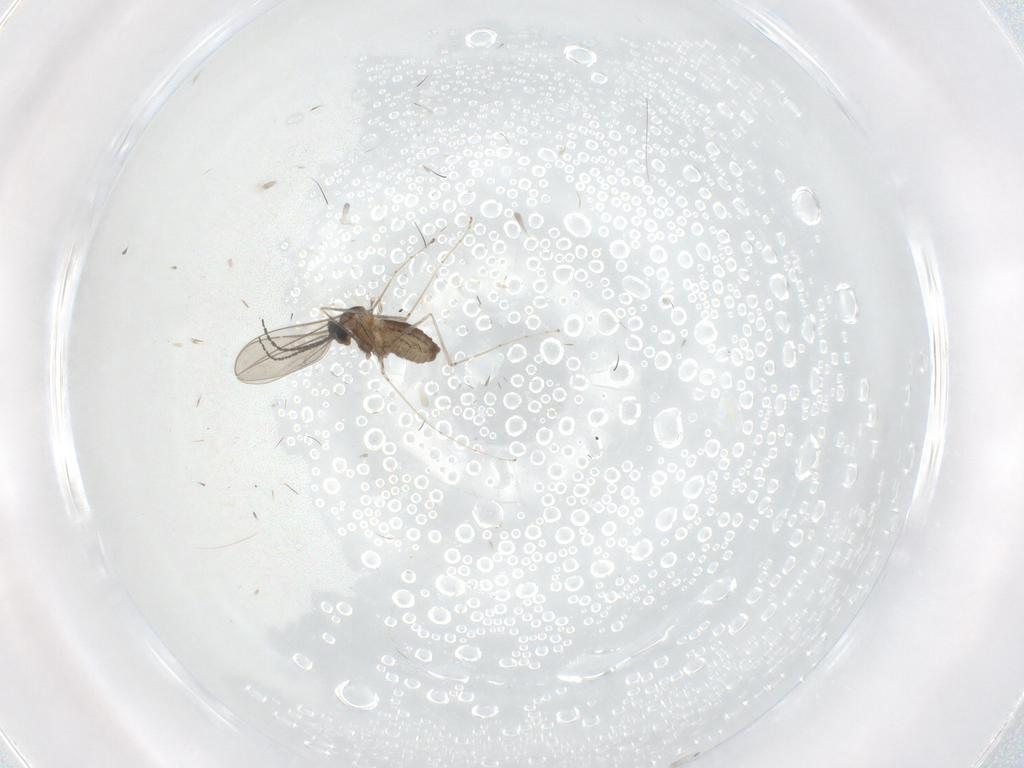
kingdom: Animalia
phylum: Arthropoda
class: Insecta
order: Diptera
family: Cecidomyiidae
